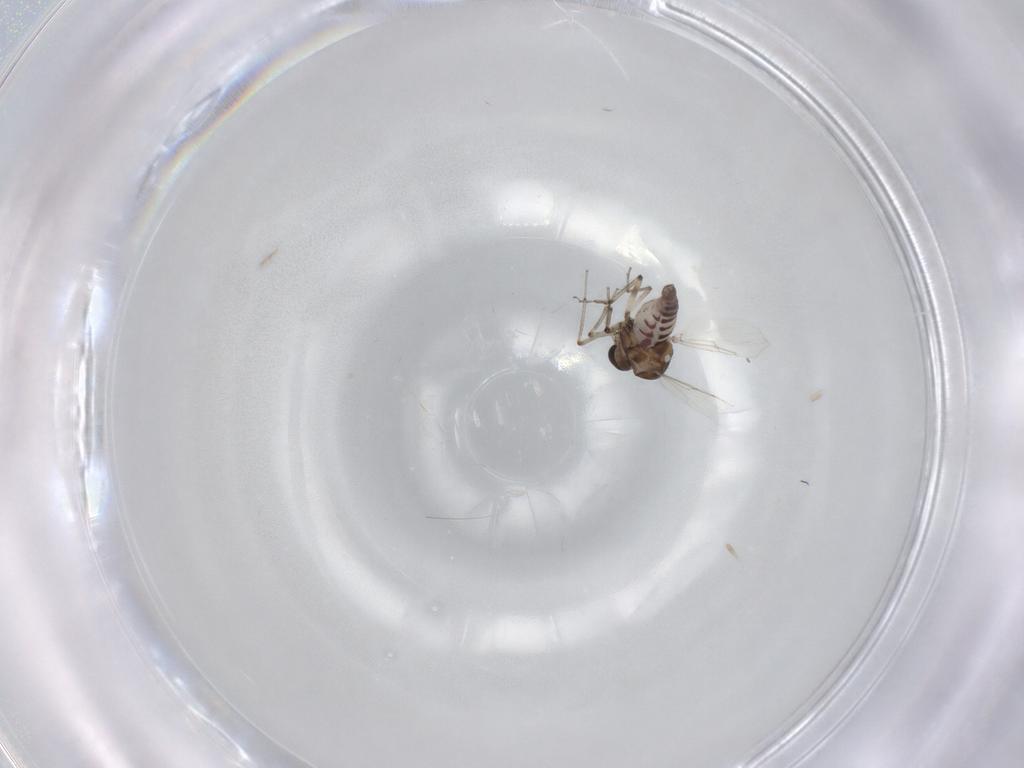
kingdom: Animalia
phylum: Arthropoda
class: Insecta
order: Diptera
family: Ceratopogonidae
